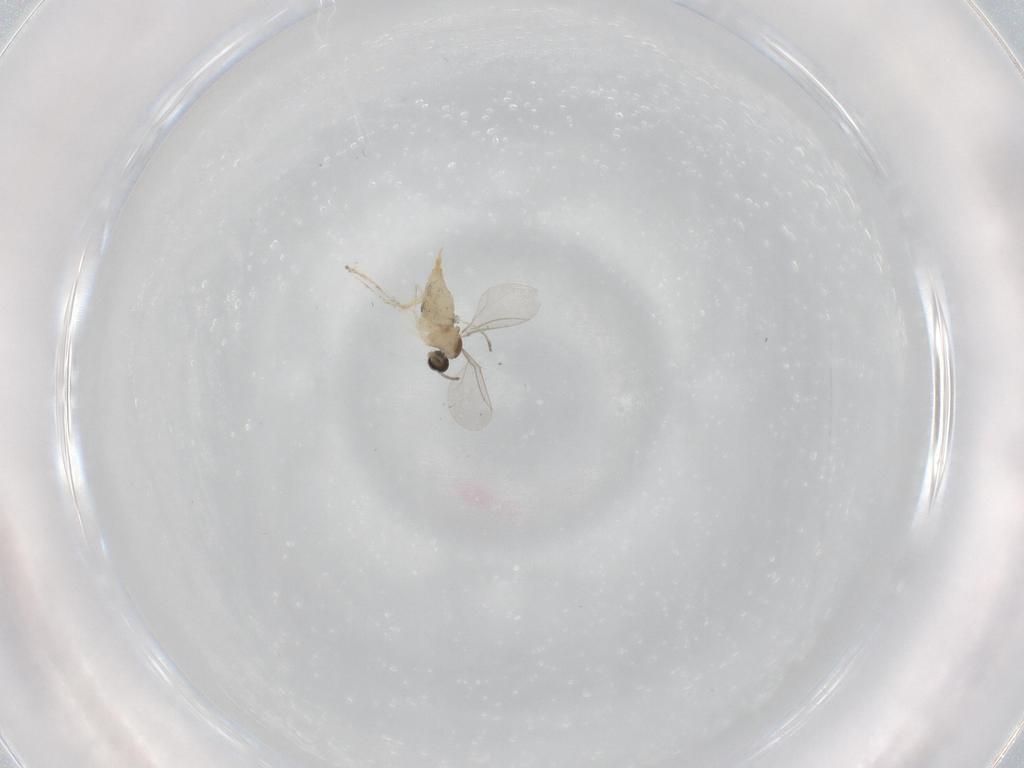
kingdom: Animalia
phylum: Arthropoda
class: Insecta
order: Diptera
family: Cecidomyiidae
